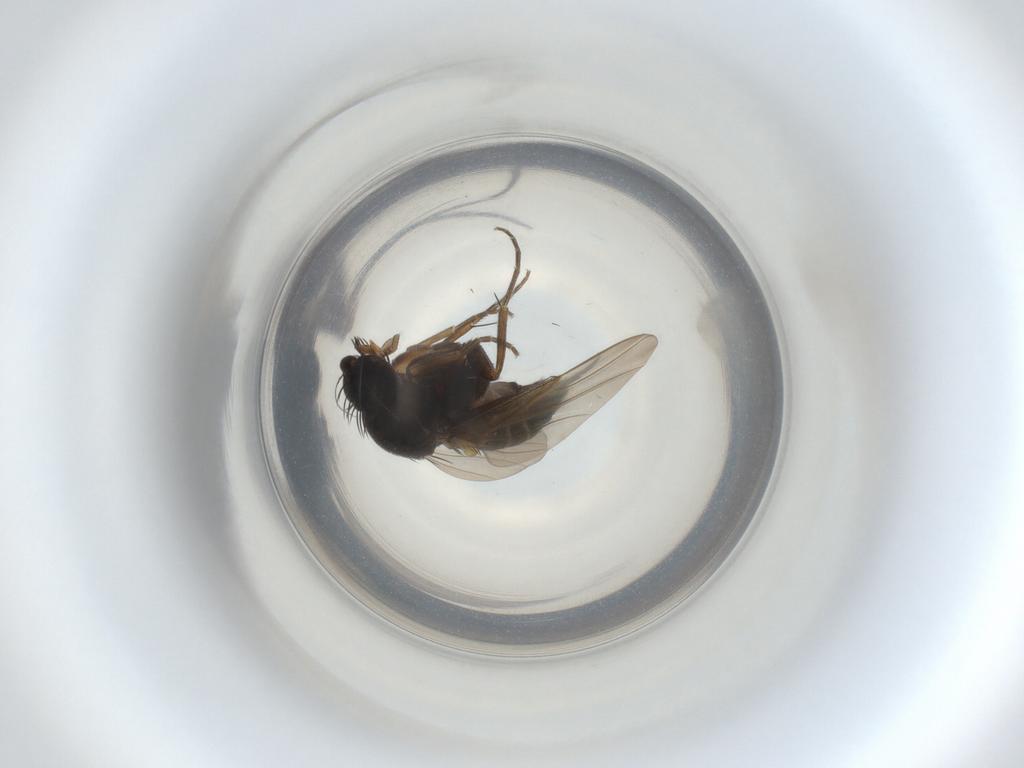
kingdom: Animalia
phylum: Arthropoda
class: Insecta
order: Diptera
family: Phoridae
